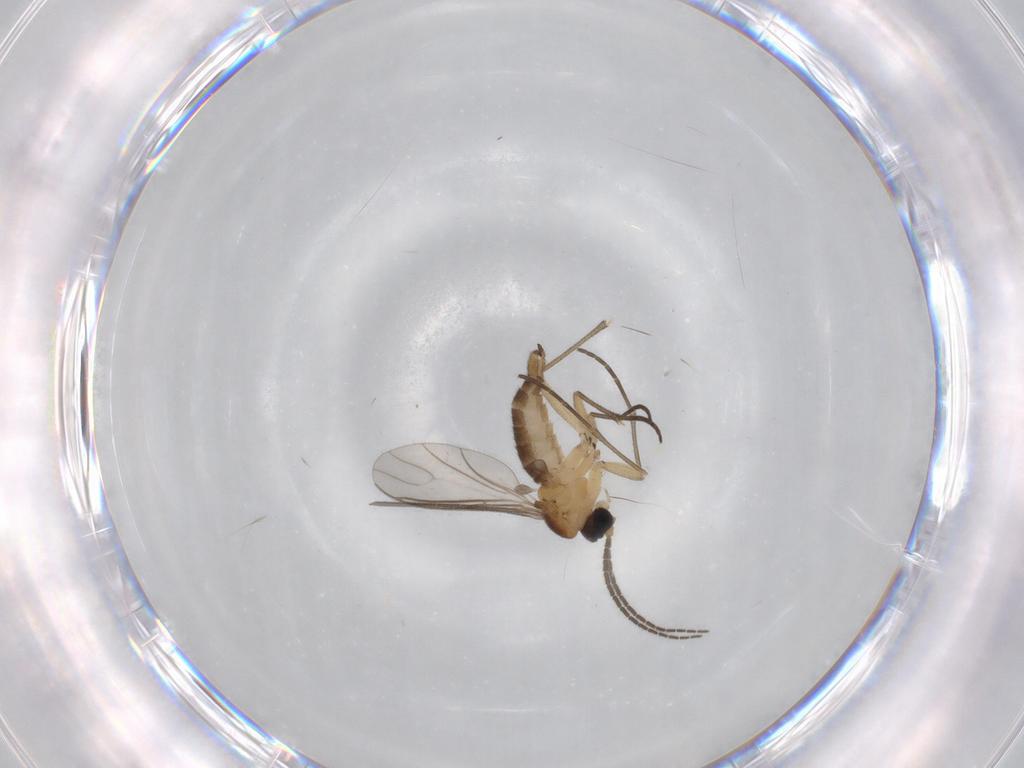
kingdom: Animalia
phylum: Arthropoda
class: Insecta
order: Diptera
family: Sciaridae
